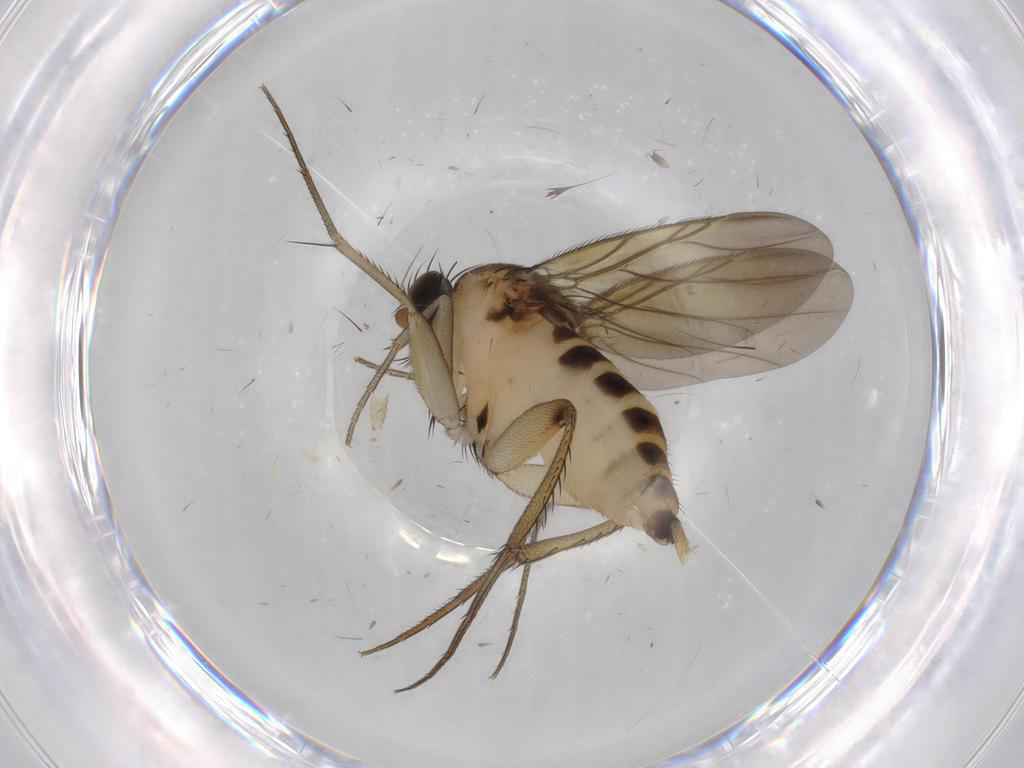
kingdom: Animalia
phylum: Arthropoda
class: Insecta
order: Diptera
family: Phoridae
